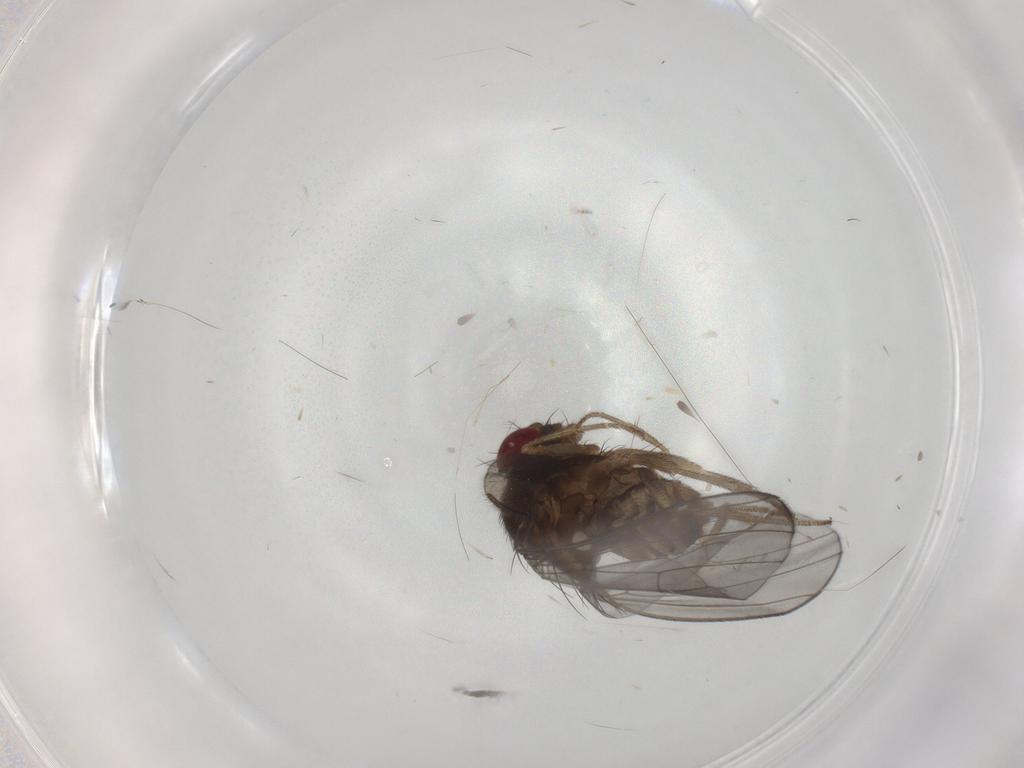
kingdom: Animalia
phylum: Arthropoda
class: Insecta
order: Diptera
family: Drosophilidae
